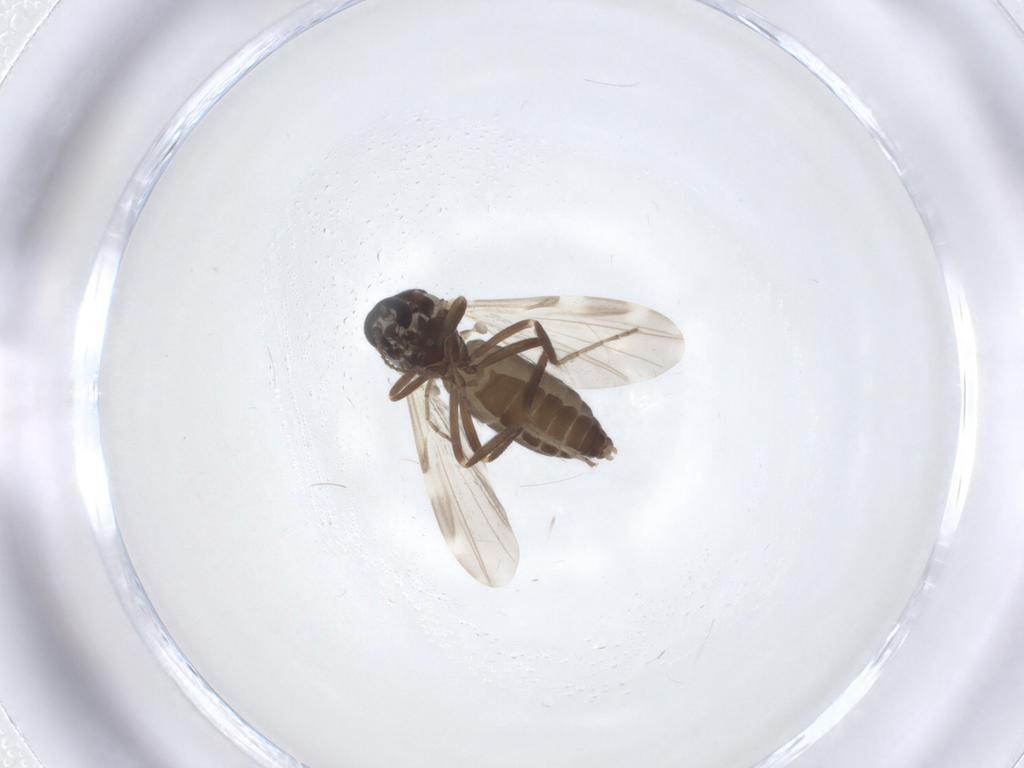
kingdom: Animalia
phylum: Arthropoda
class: Insecta
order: Diptera
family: Ceratopogonidae
